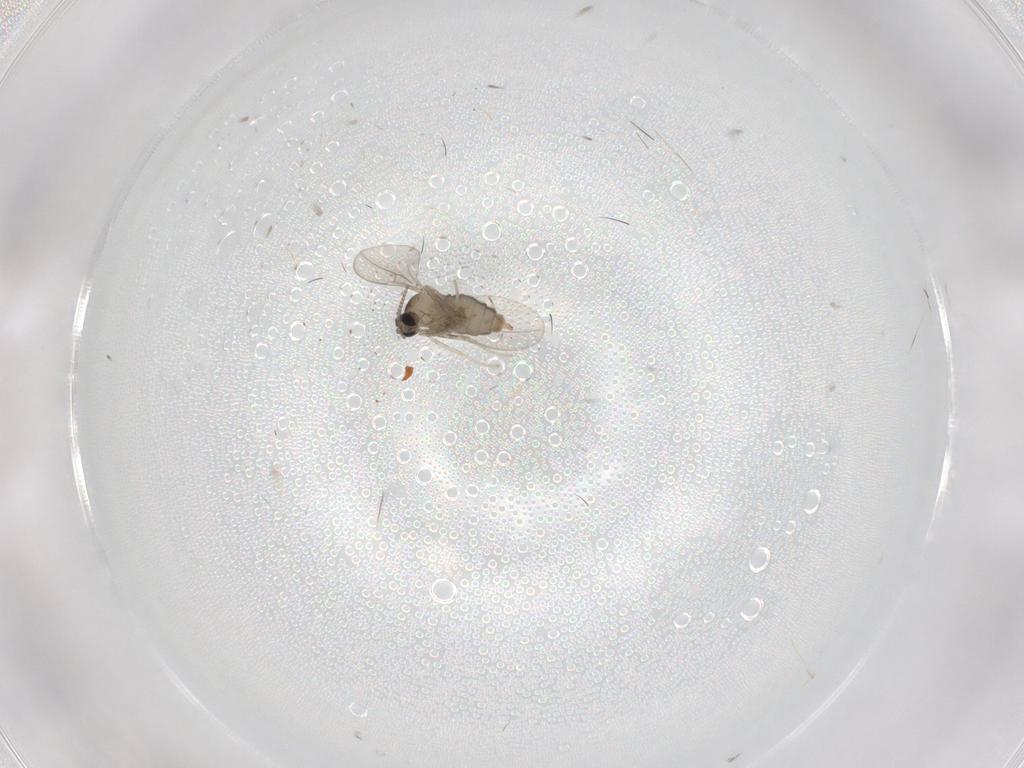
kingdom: Animalia
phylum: Arthropoda
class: Insecta
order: Diptera
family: Cecidomyiidae
